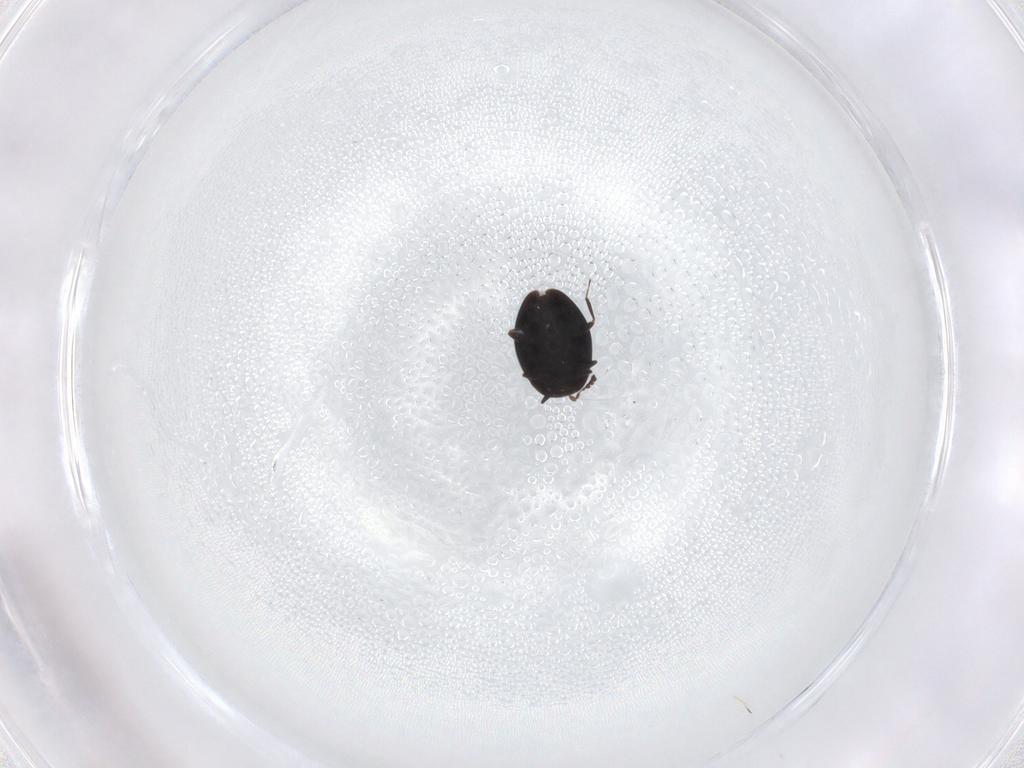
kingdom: Animalia
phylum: Arthropoda
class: Insecta
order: Coleoptera
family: Corylophidae
